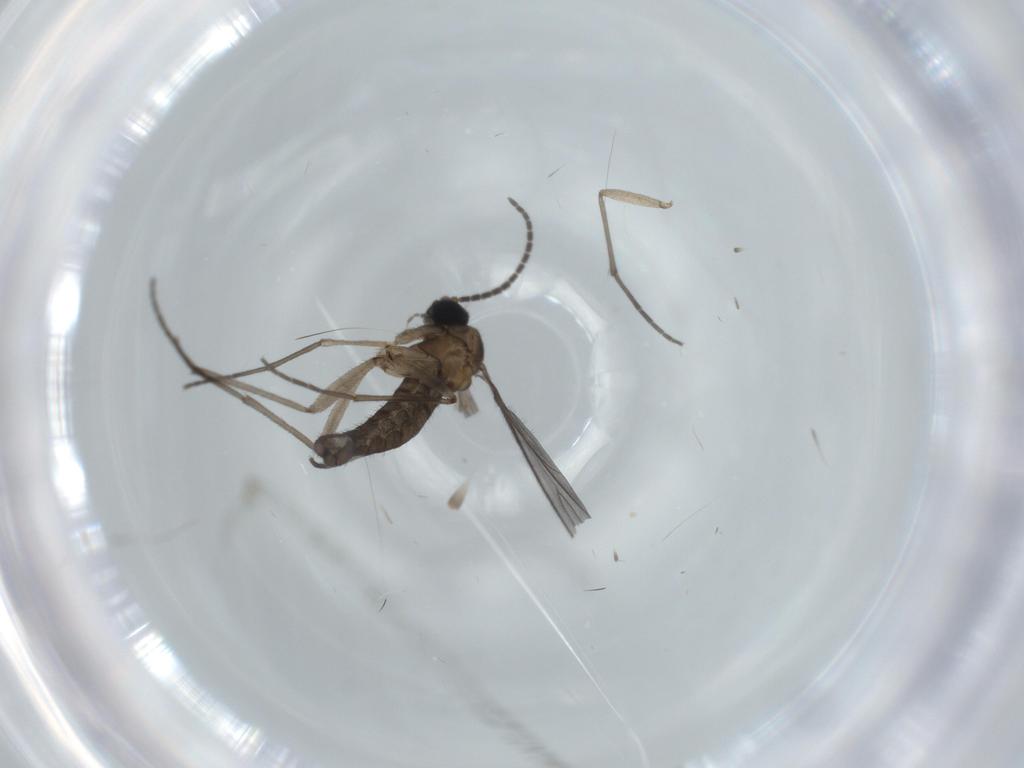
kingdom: Animalia
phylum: Arthropoda
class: Insecta
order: Diptera
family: Sciaridae
